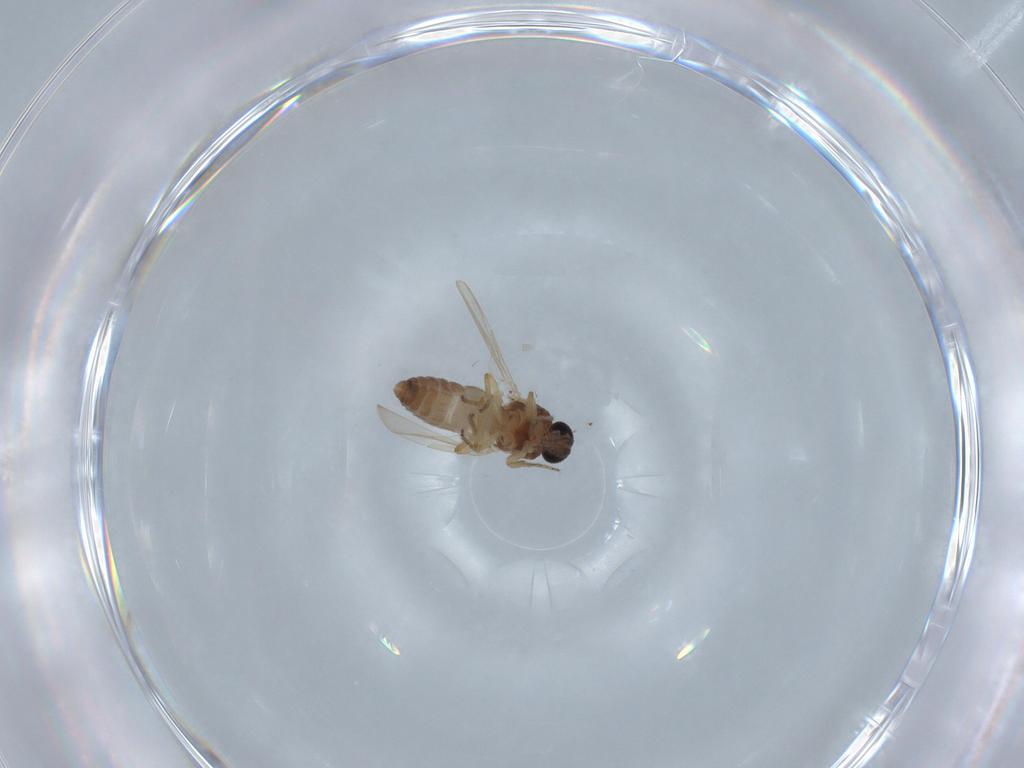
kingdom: Animalia
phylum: Arthropoda
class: Insecta
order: Diptera
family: Ceratopogonidae
